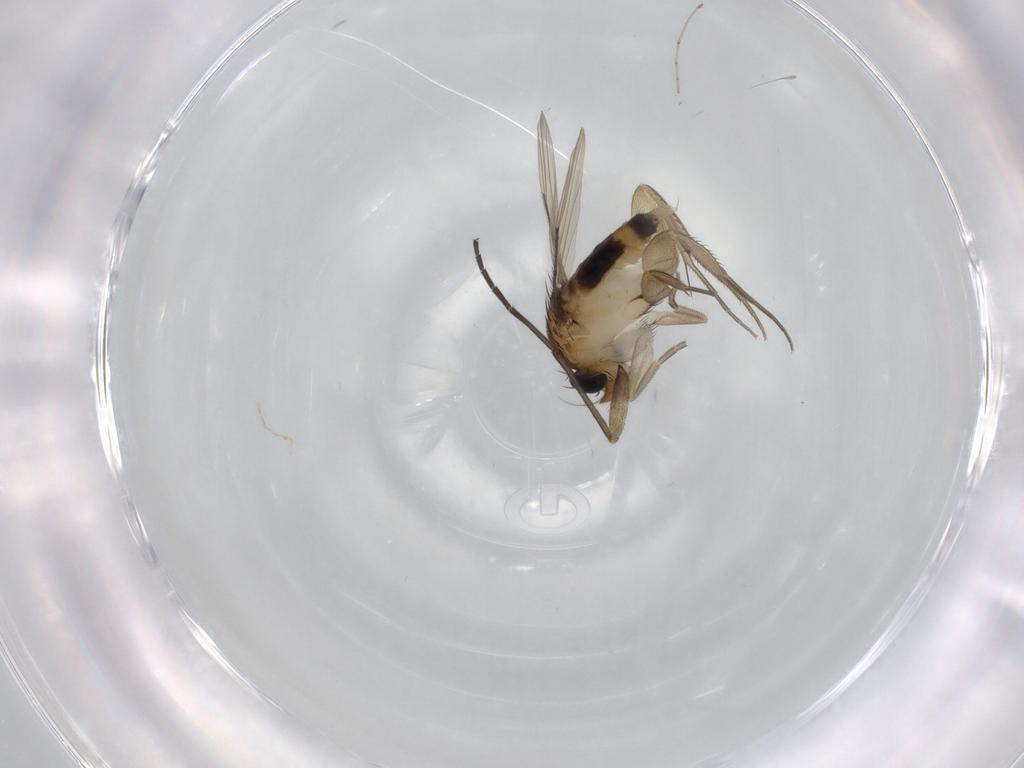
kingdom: Animalia
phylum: Arthropoda
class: Insecta
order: Diptera
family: Phoridae
